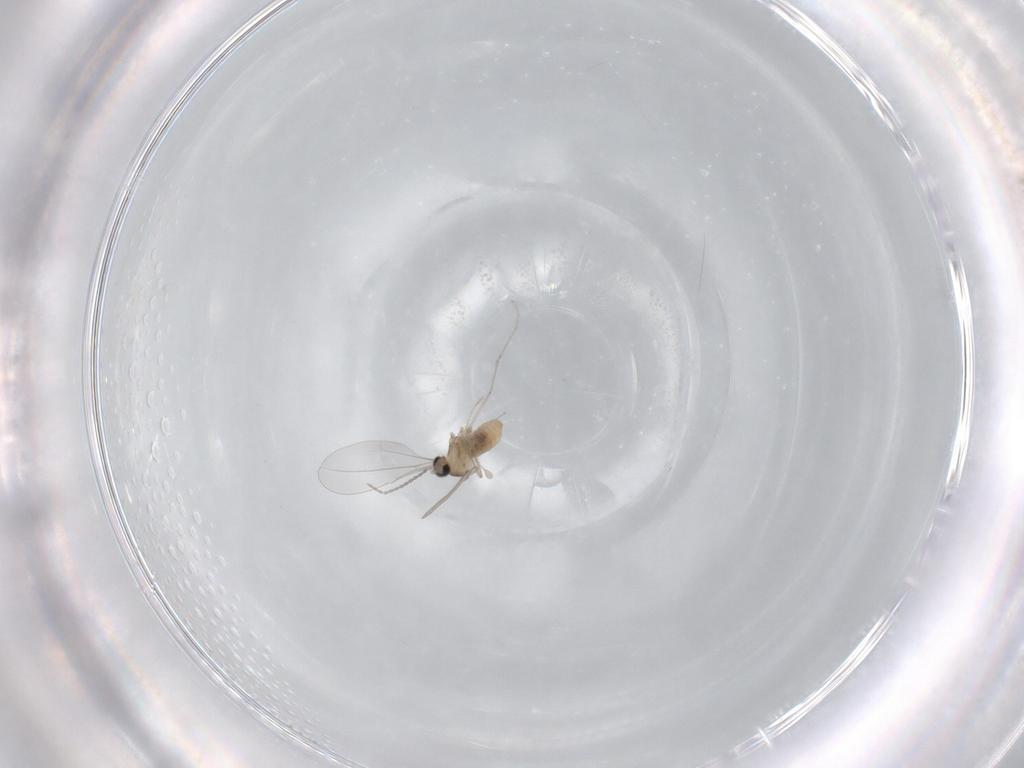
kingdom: Animalia
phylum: Arthropoda
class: Insecta
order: Diptera
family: Cecidomyiidae
